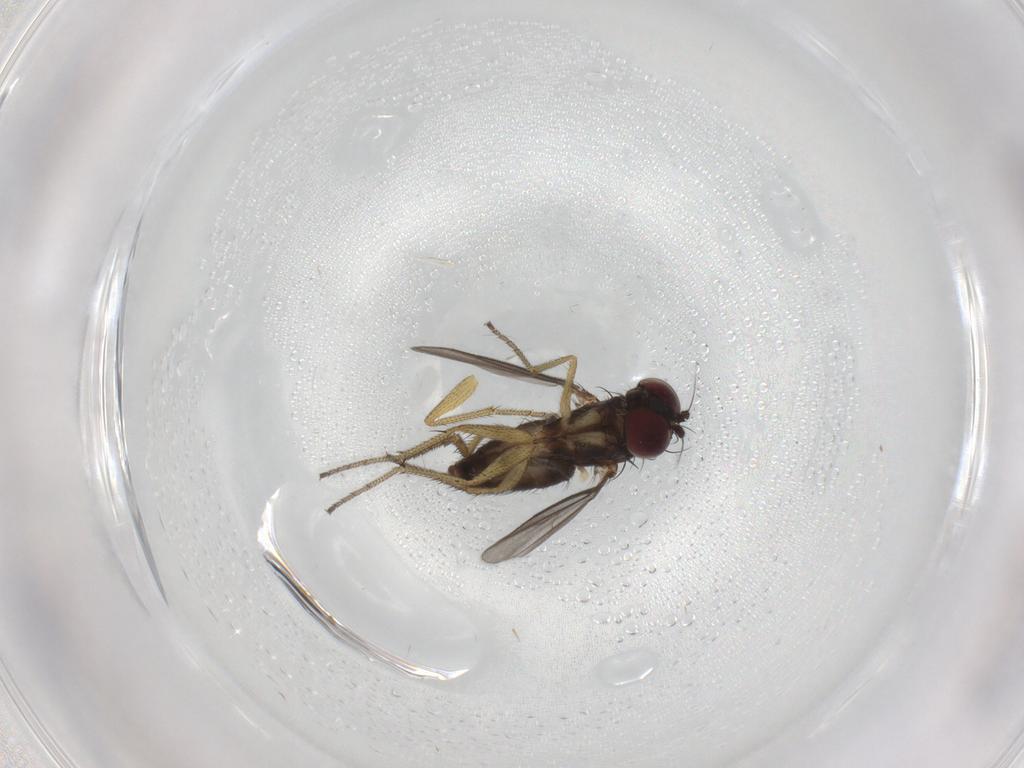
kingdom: Animalia
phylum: Arthropoda
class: Insecta
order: Diptera
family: Dolichopodidae
